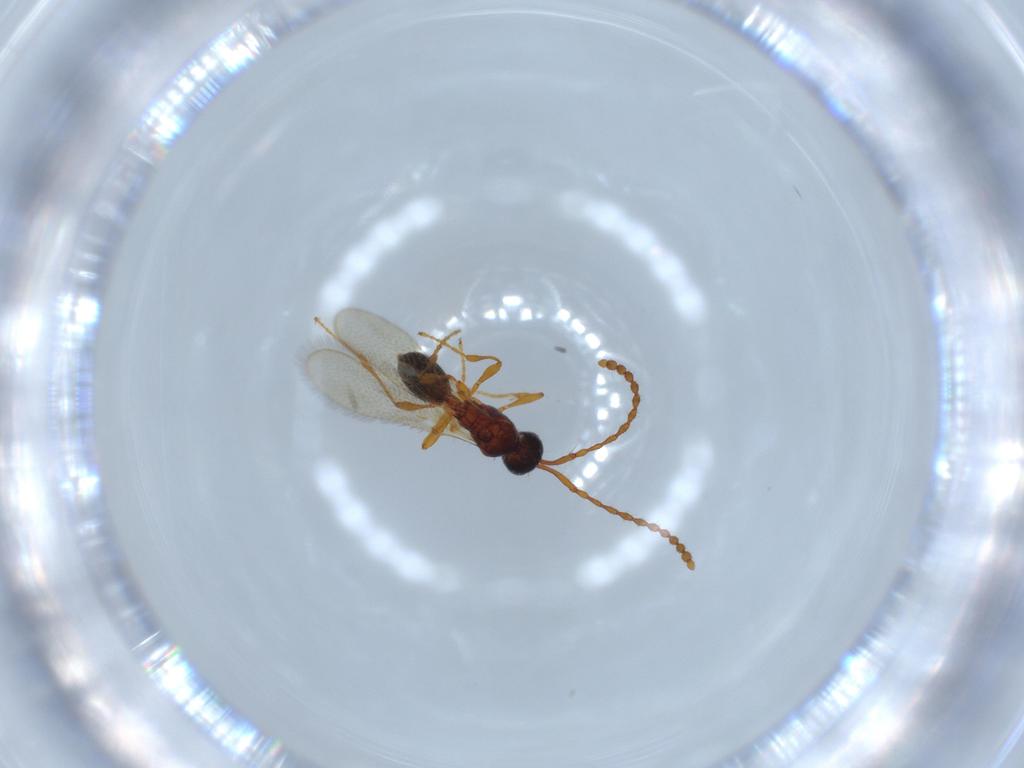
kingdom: Animalia
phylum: Arthropoda
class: Insecta
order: Hymenoptera
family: Diapriidae
